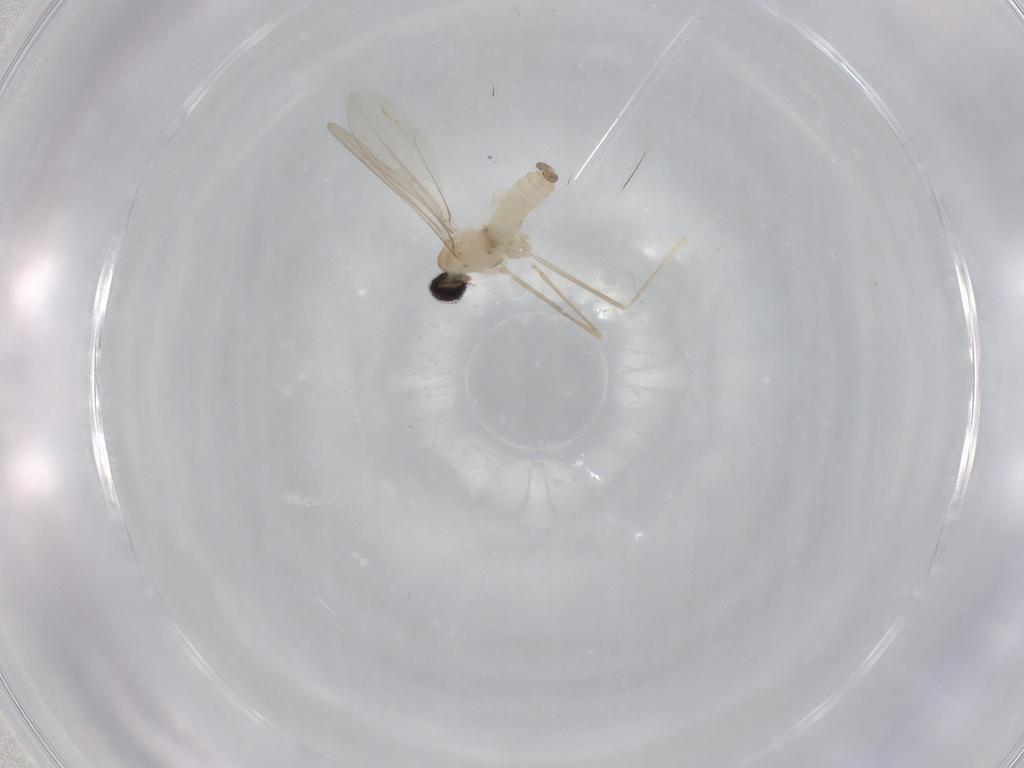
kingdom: Animalia
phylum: Arthropoda
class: Insecta
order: Diptera
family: Cecidomyiidae
